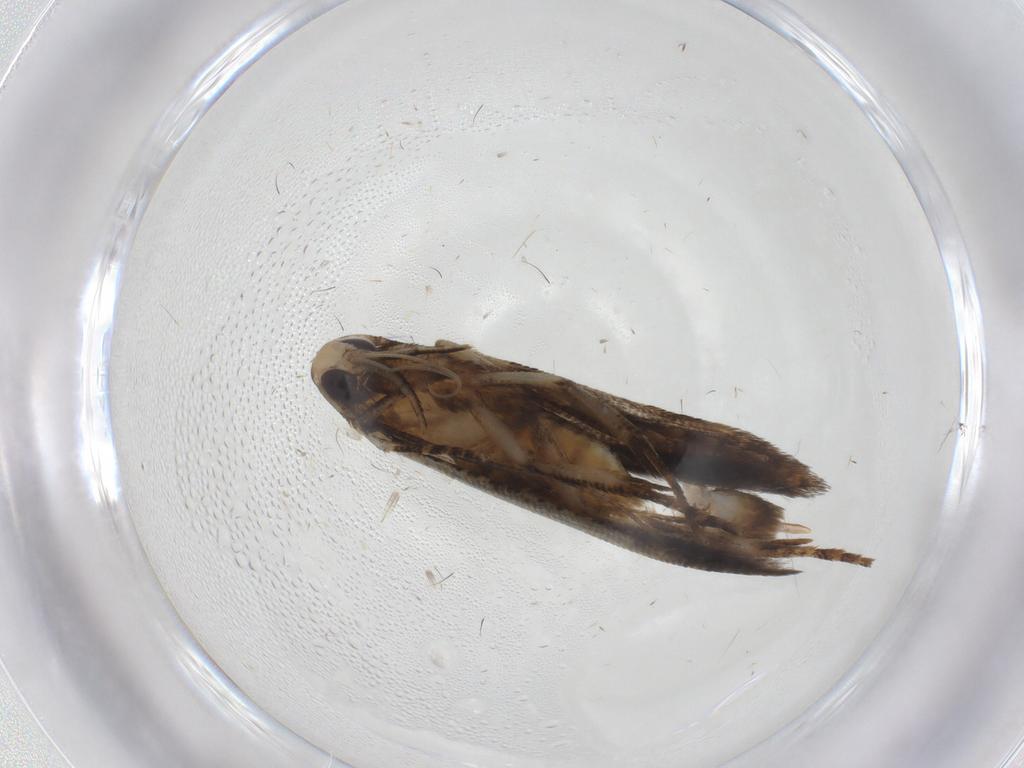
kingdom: Animalia
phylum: Arthropoda
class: Insecta
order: Lepidoptera
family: Depressariidae
